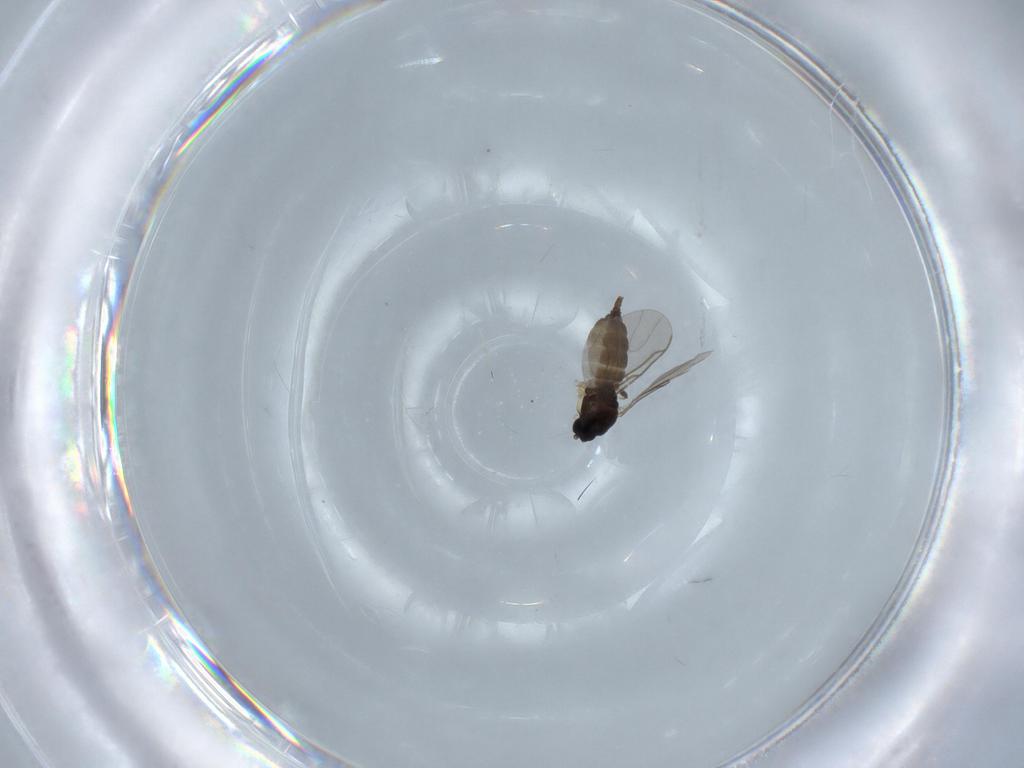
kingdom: Animalia
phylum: Arthropoda
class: Insecta
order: Diptera
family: Sciaridae
